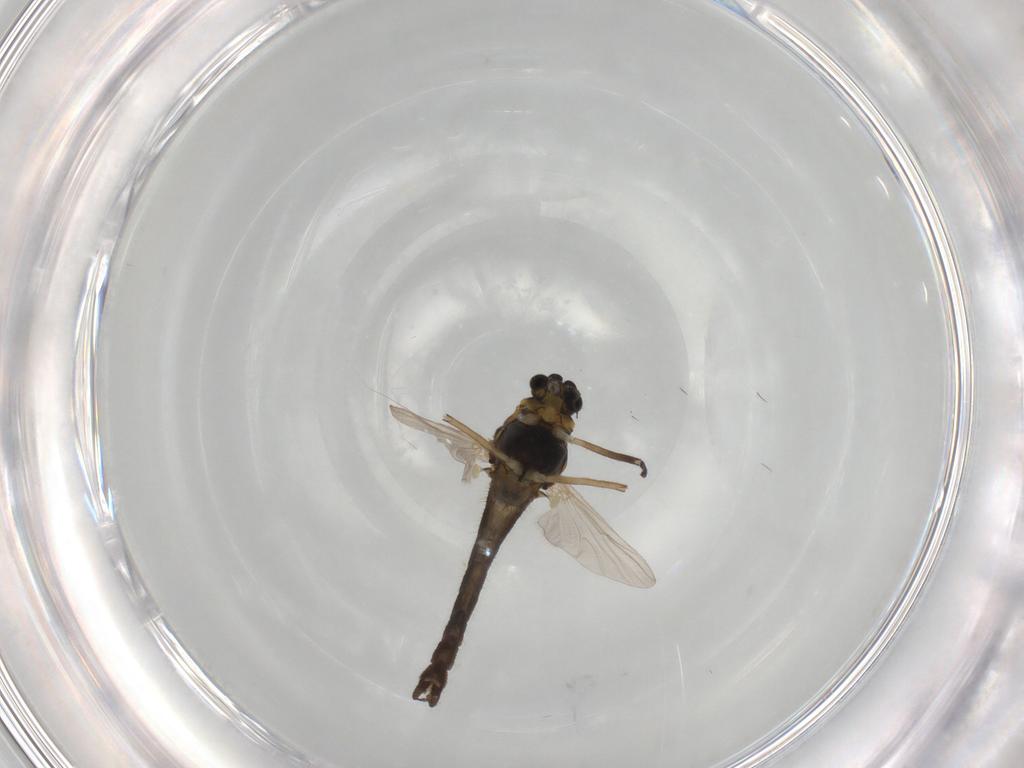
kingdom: Animalia
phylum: Arthropoda
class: Insecta
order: Diptera
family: Chironomidae
